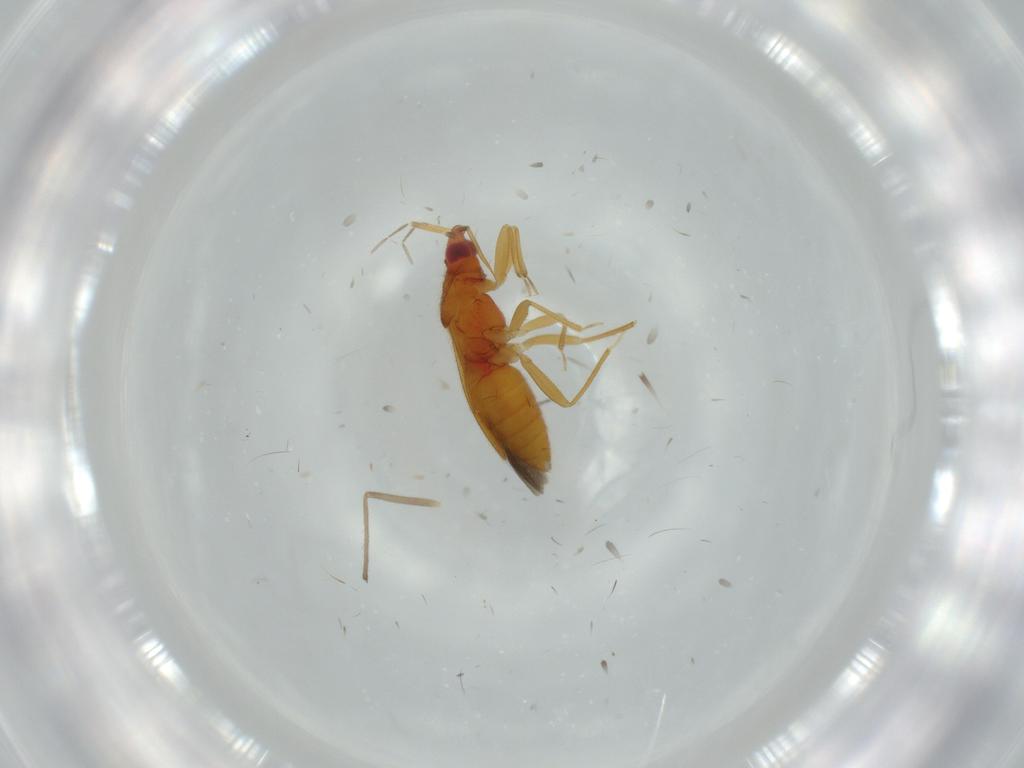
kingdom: Animalia
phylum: Arthropoda
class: Insecta
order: Hemiptera
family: Anthocoridae
